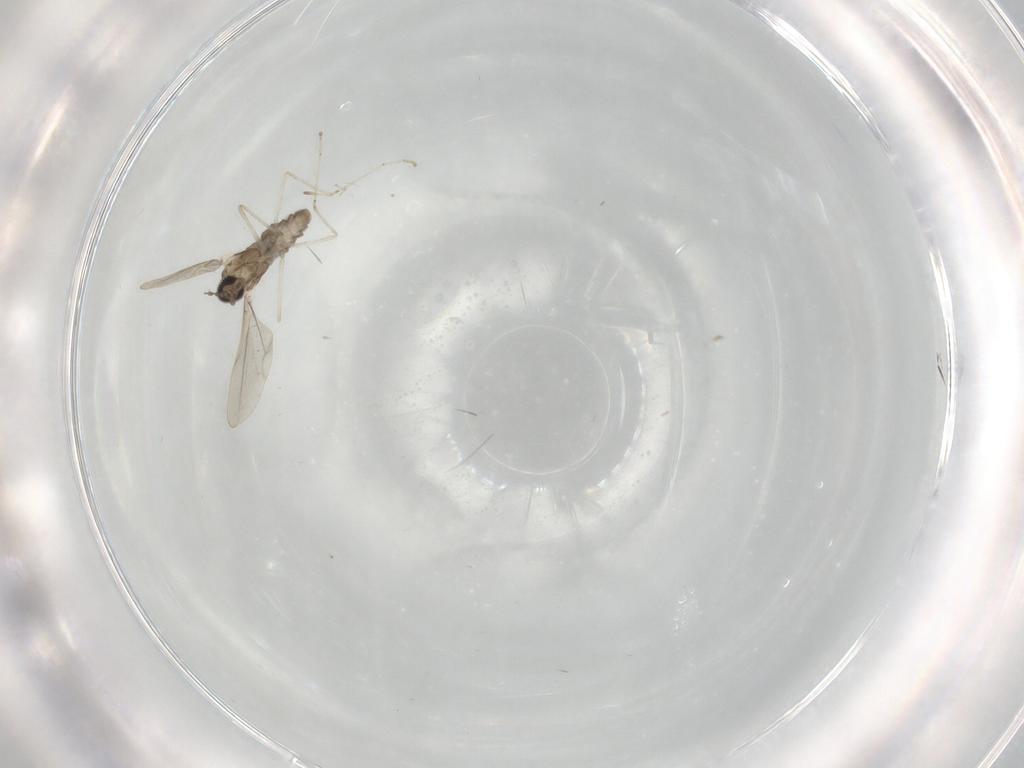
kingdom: Animalia
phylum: Arthropoda
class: Insecta
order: Diptera
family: Cecidomyiidae
